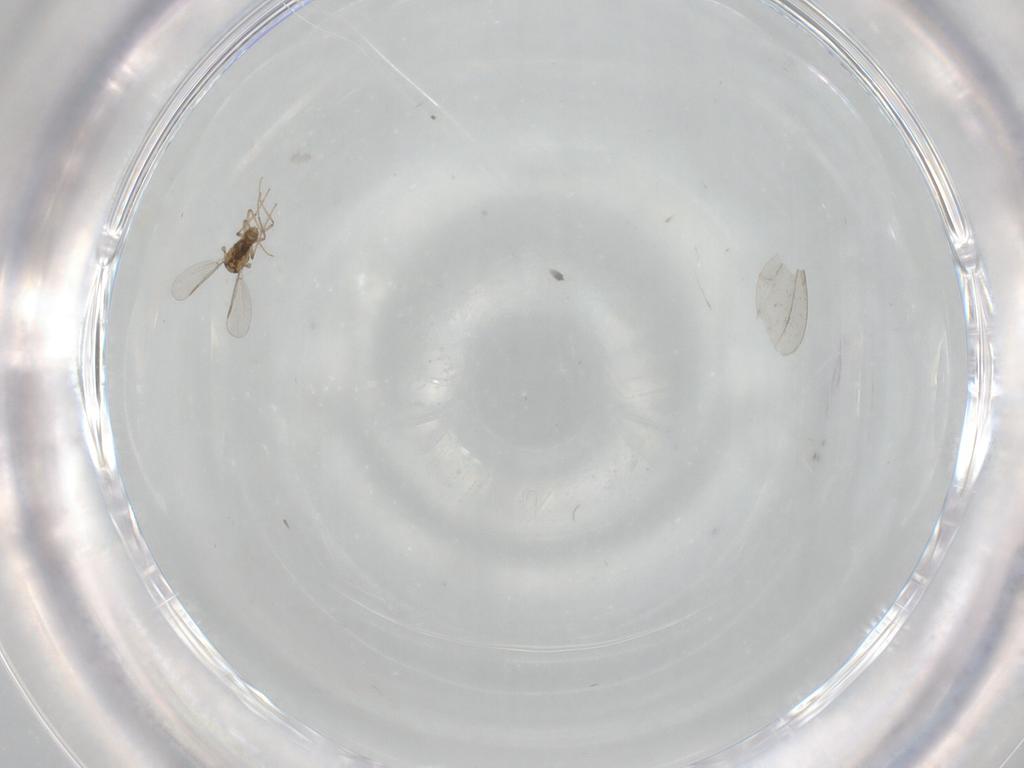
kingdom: Animalia
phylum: Arthropoda
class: Insecta
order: Diptera
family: Chironomidae
